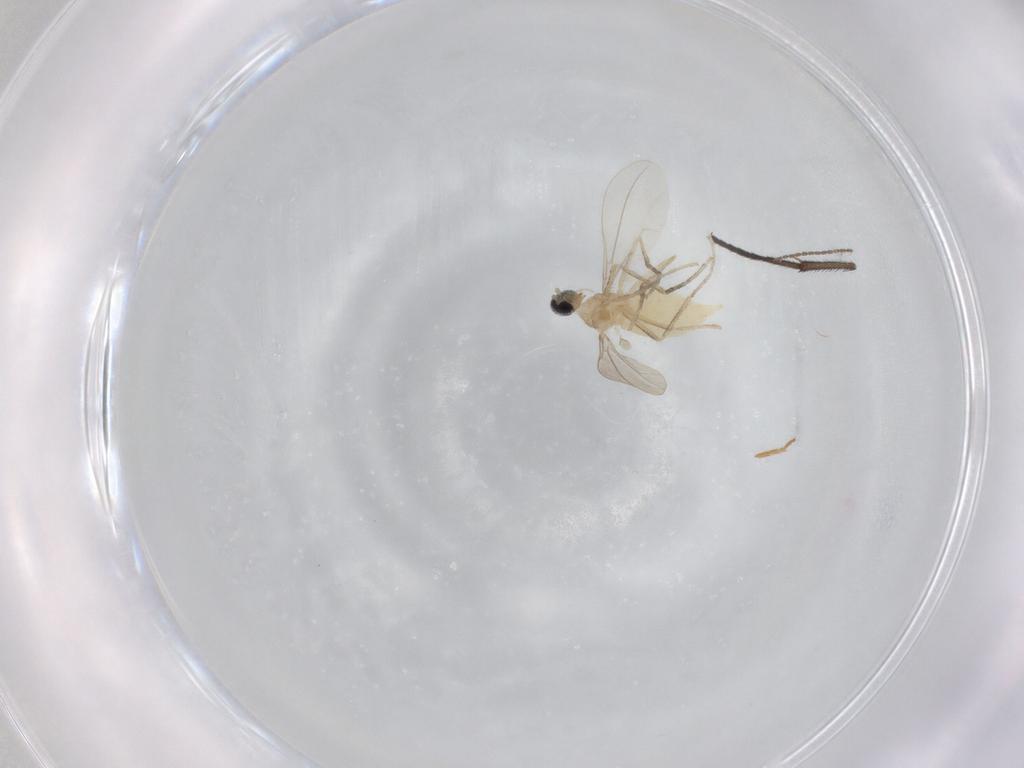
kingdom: Animalia
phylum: Arthropoda
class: Insecta
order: Diptera
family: Cecidomyiidae
